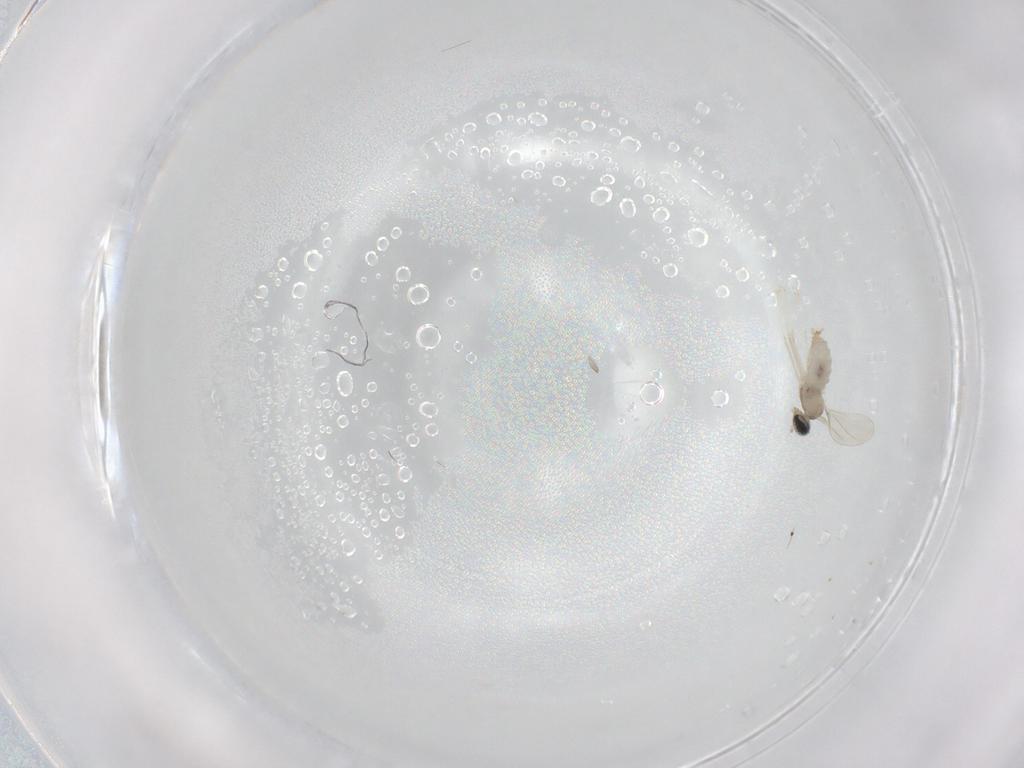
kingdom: Animalia
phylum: Arthropoda
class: Insecta
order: Diptera
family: Cecidomyiidae
